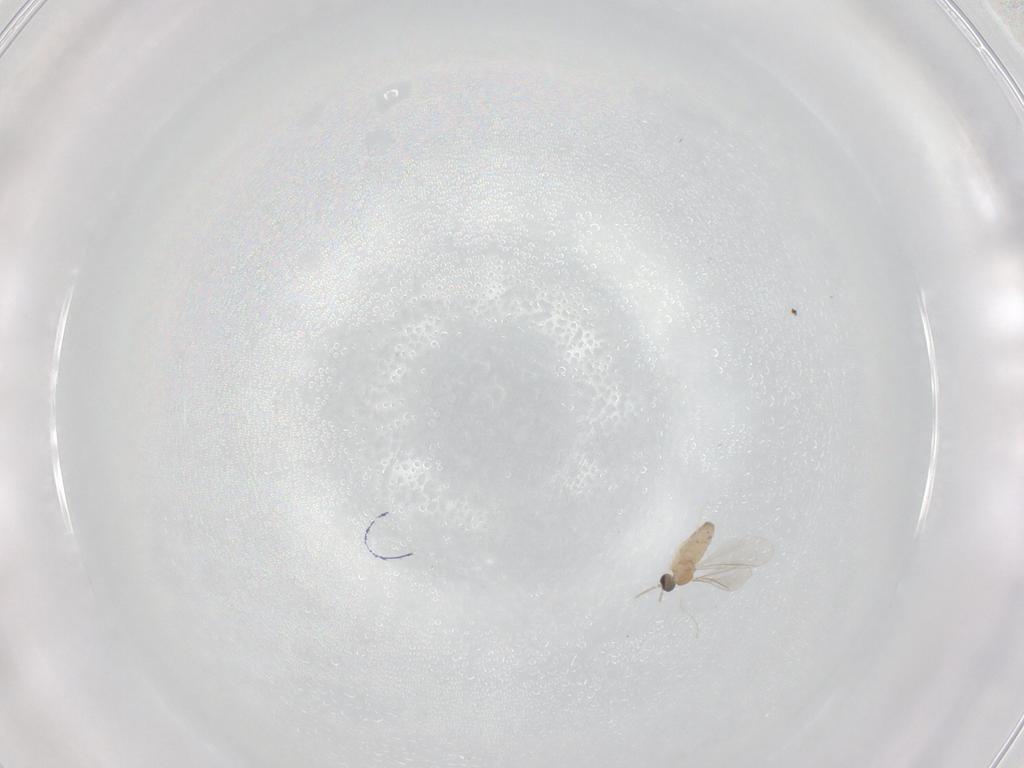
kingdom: Animalia
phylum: Arthropoda
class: Insecta
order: Diptera
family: Cecidomyiidae
